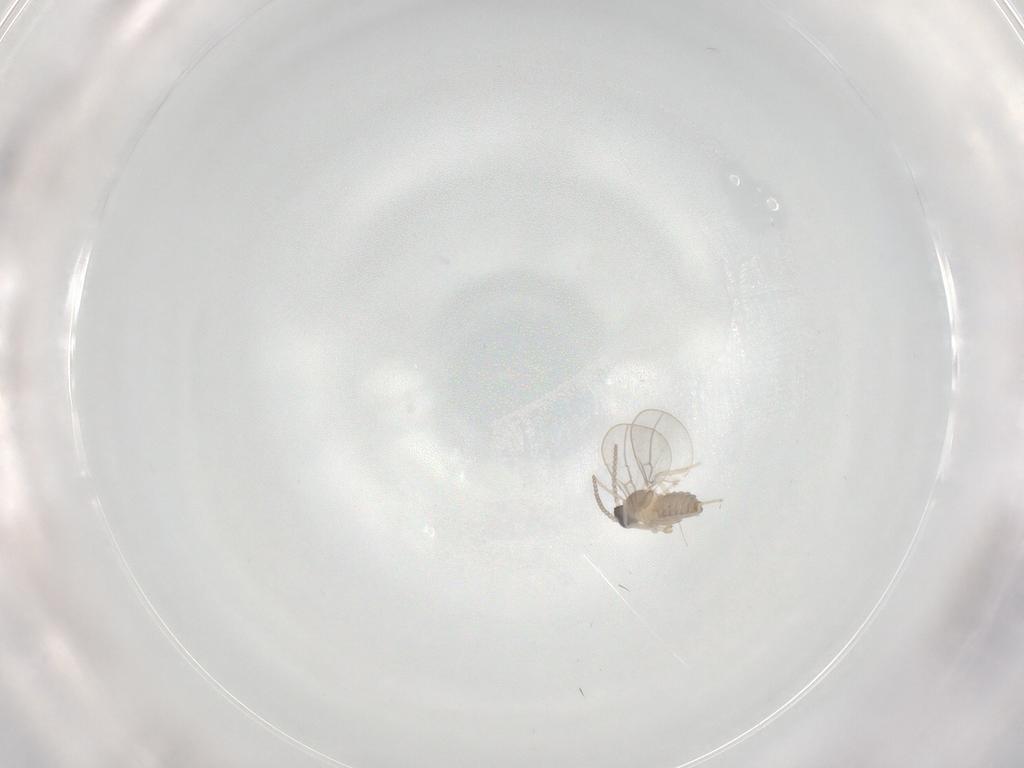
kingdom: Animalia
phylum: Arthropoda
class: Insecta
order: Diptera
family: Cecidomyiidae
